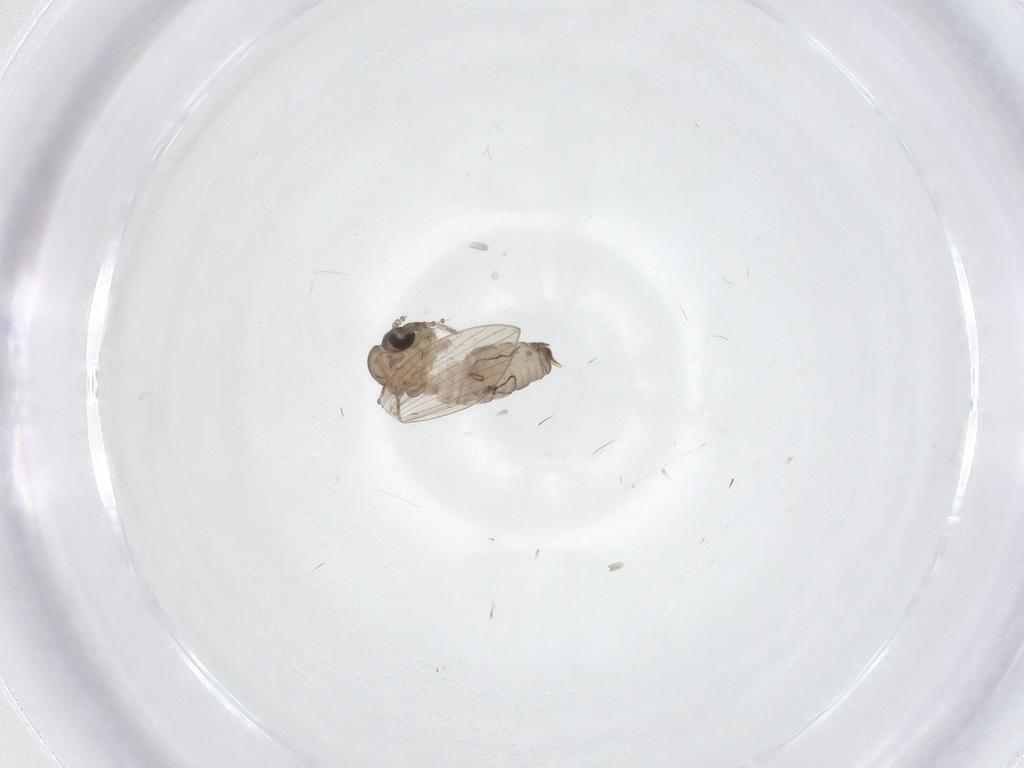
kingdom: Animalia
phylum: Arthropoda
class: Insecta
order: Diptera
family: Psychodidae
